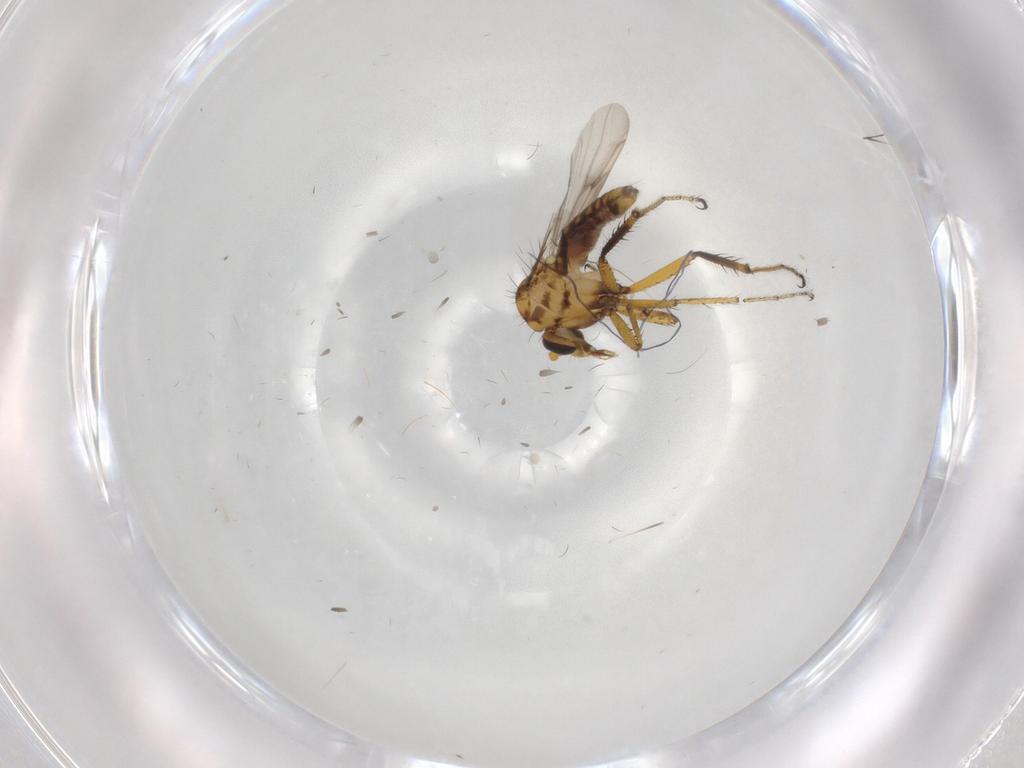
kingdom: Animalia
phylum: Arthropoda
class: Insecta
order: Diptera
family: Ceratopogonidae
